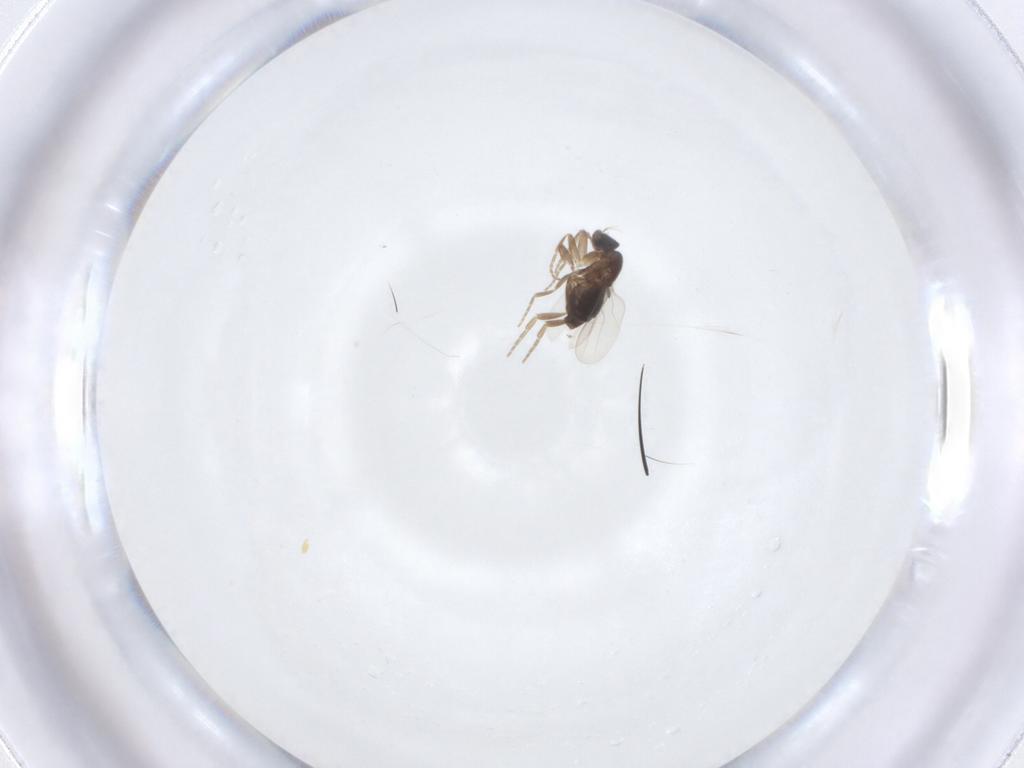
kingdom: Animalia
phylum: Arthropoda
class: Insecta
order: Diptera
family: Phoridae
